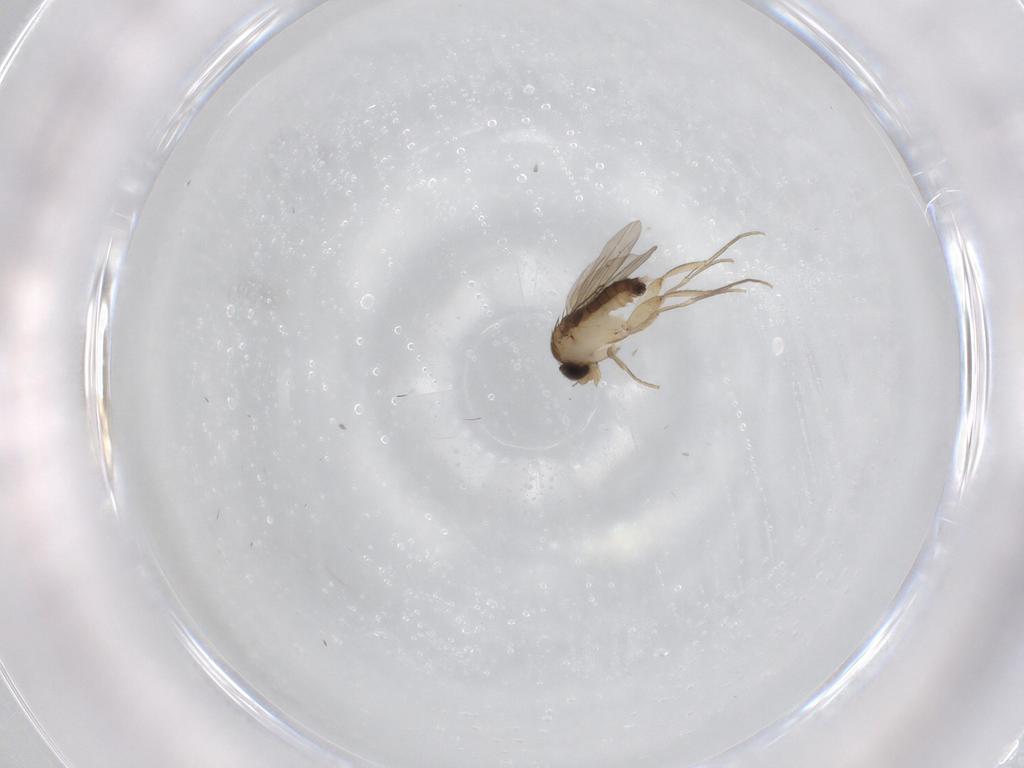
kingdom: Animalia
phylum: Arthropoda
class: Insecta
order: Diptera
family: Phoridae
